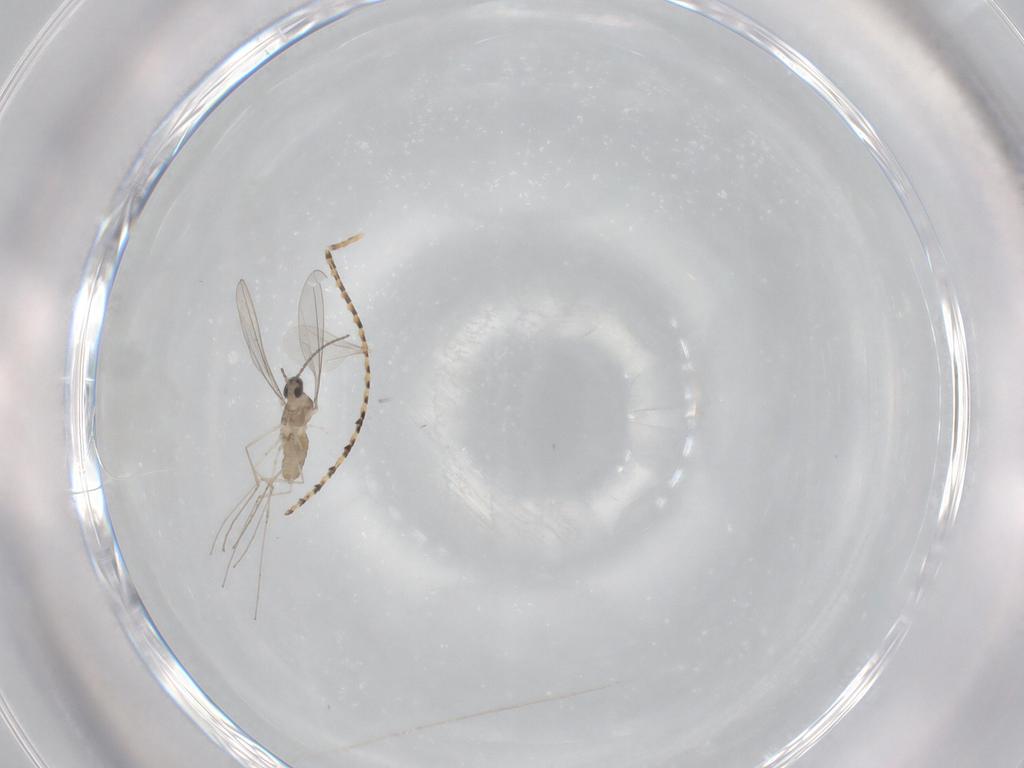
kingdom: Animalia
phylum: Arthropoda
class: Insecta
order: Diptera
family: Cecidomyiidae
